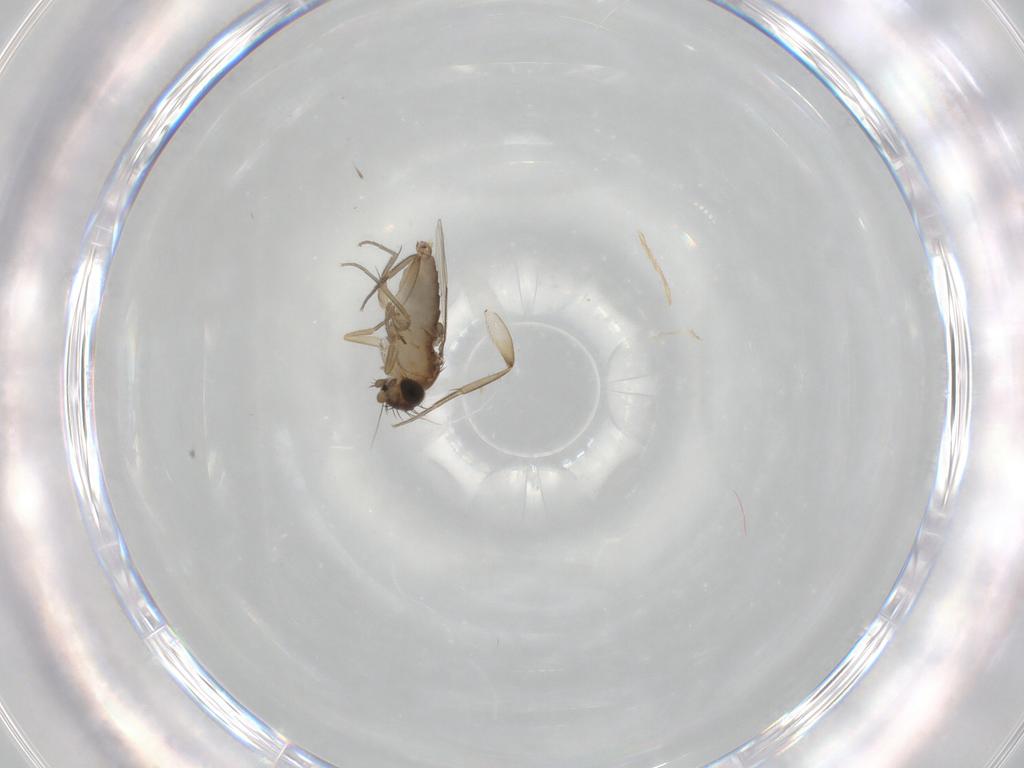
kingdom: Animalia
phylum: Arthropoda
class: Insecta
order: Diptera
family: Phoridae
